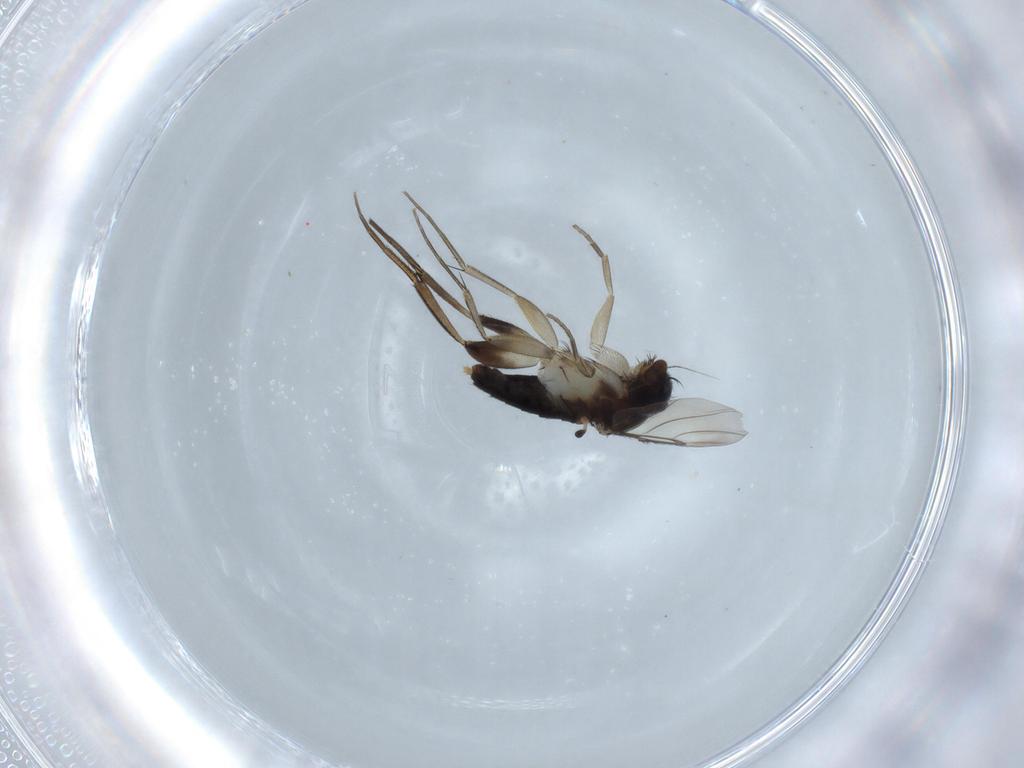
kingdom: Animalia
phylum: Arthropoda
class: Insecta
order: Diptera
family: Phoridae
